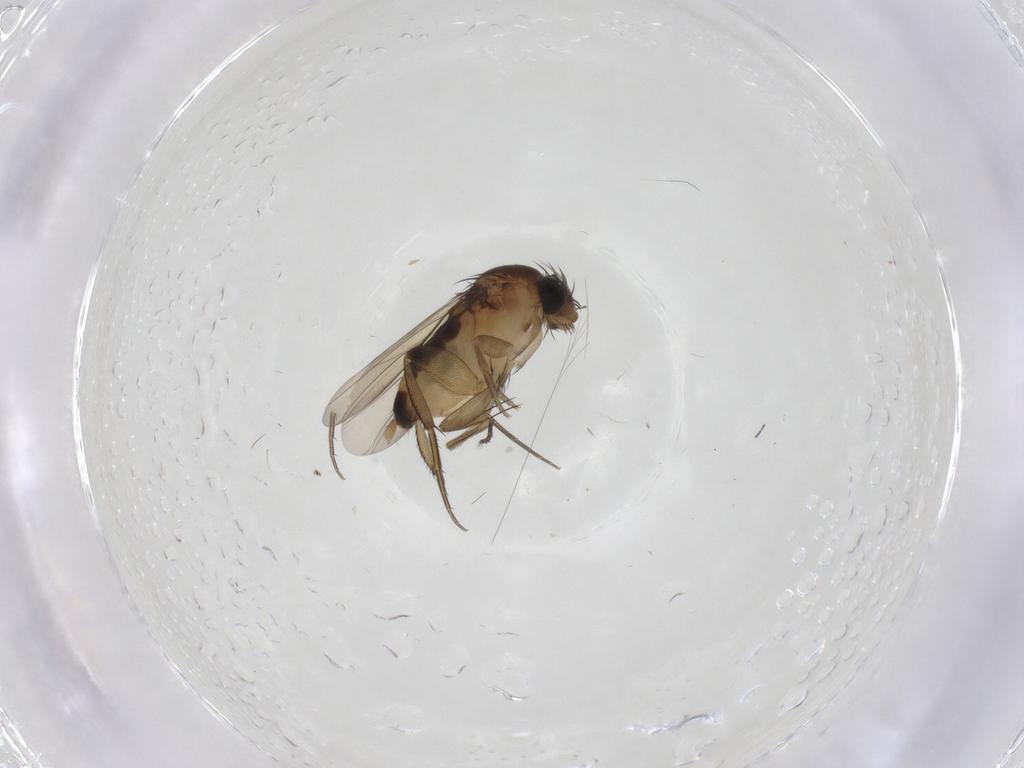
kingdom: Animalia
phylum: Arthropoda
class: Insecta
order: Diptera
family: Phoridae
